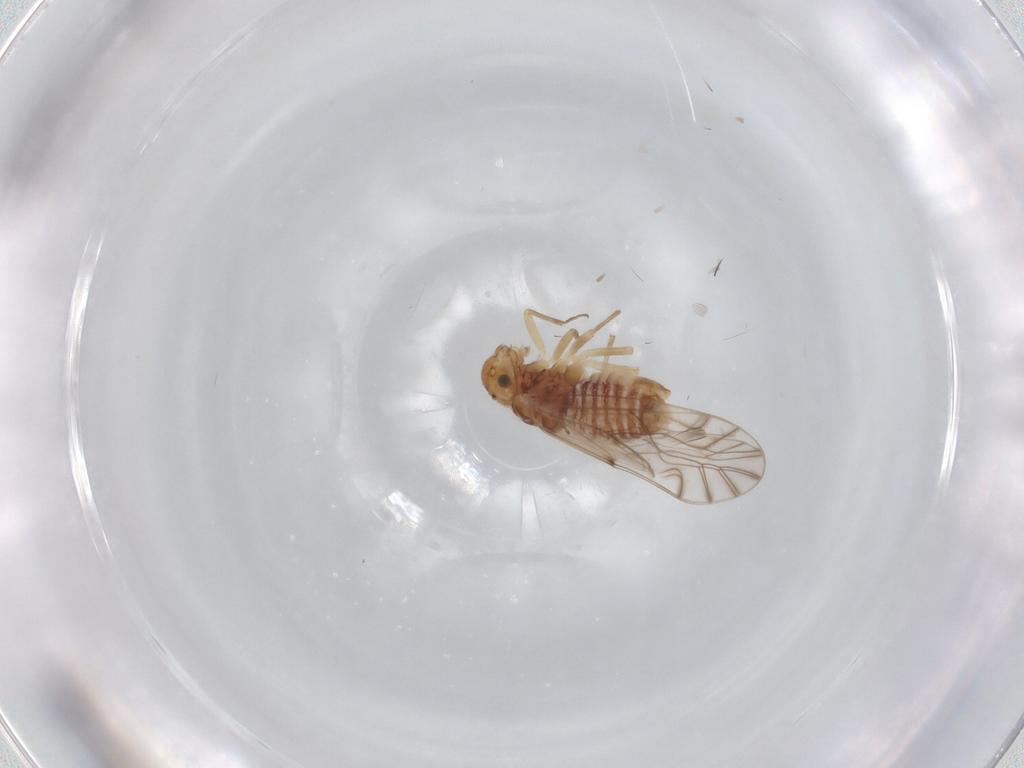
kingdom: Animalia
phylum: Arthropoda
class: Insecta
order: Psocodea
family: Lachesillidae
